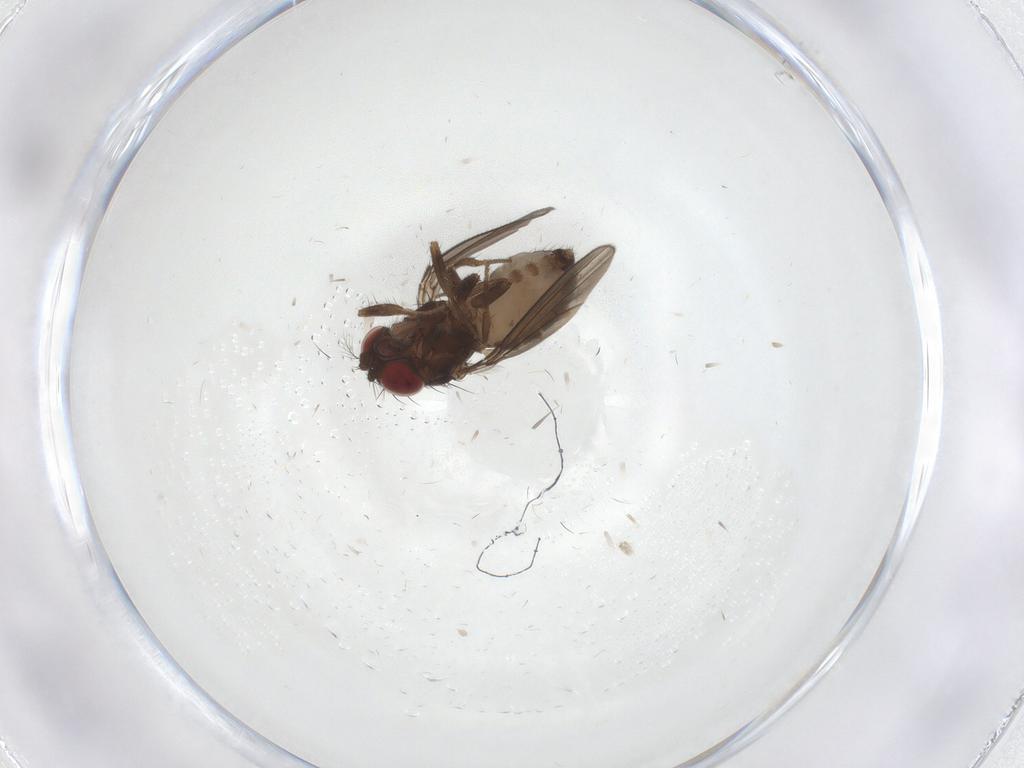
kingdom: Animalia
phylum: Arthropoda
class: Insecta
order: Diptera
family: Drosophilidae
